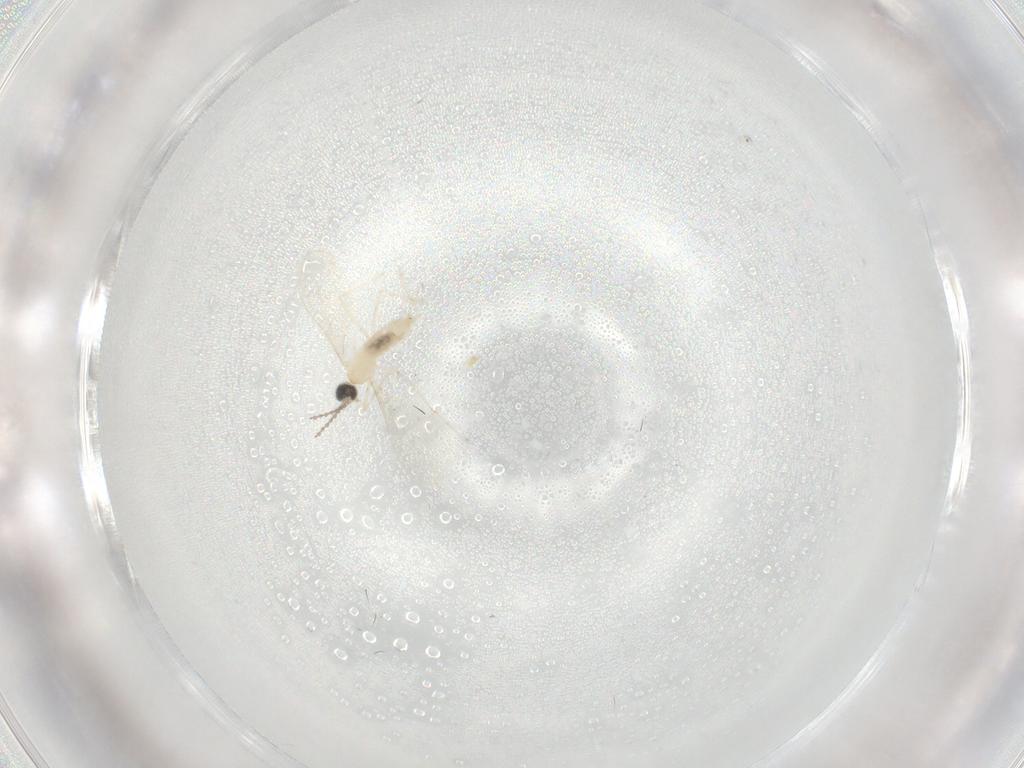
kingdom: Animalia
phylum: Arthropoda
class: Insecta
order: Diptera
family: Cecidomyiidae
